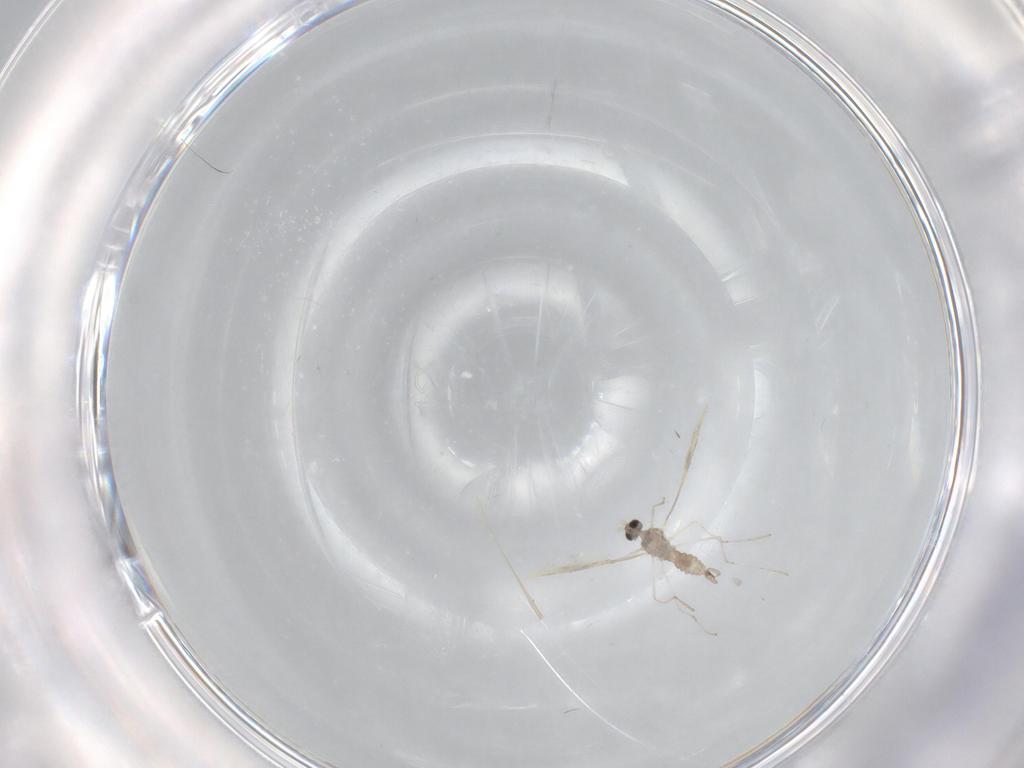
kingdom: Animalia
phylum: Arthropoda
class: Insecta
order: Diptera
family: Cecidomyiidae
